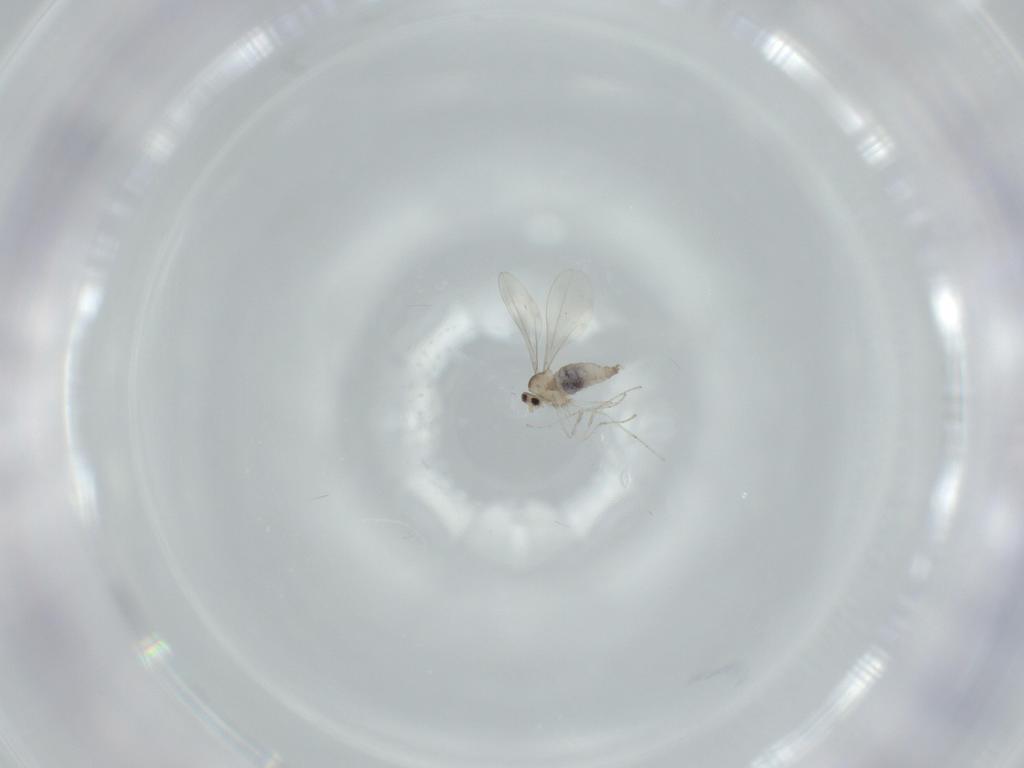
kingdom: Animalia
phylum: Arthropoda
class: Insecta
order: Diptera
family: Cecidomyiidae
